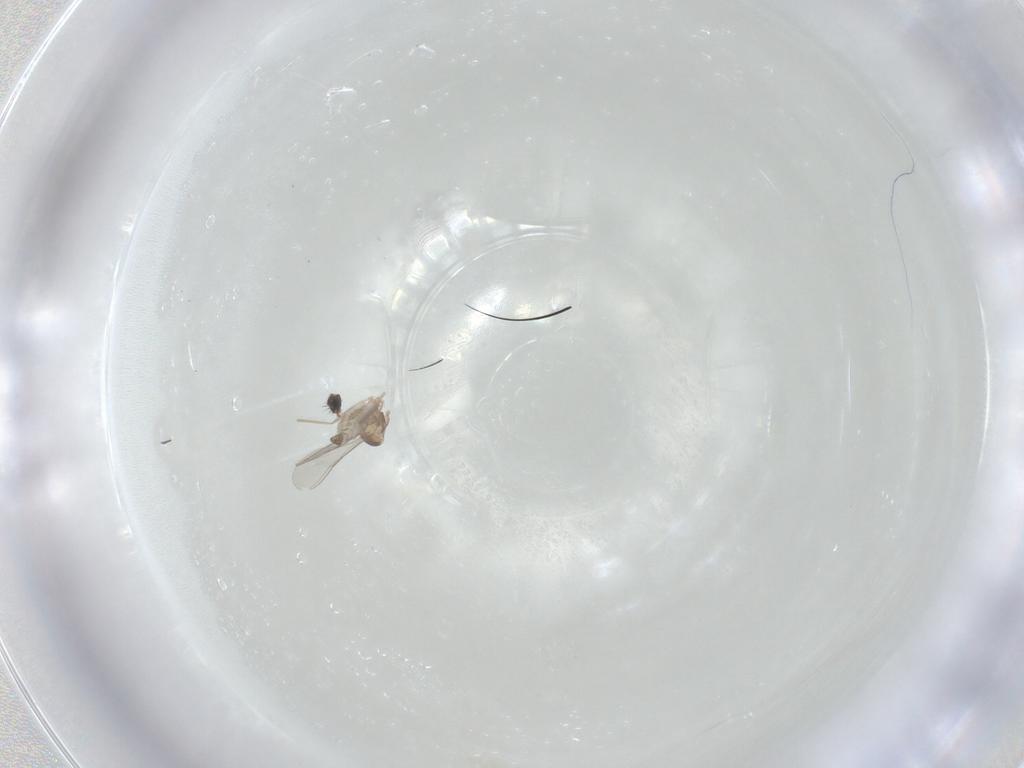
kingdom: Animalia
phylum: Arthropoda
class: Insecta
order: Diptera
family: Cecidomyiidae
